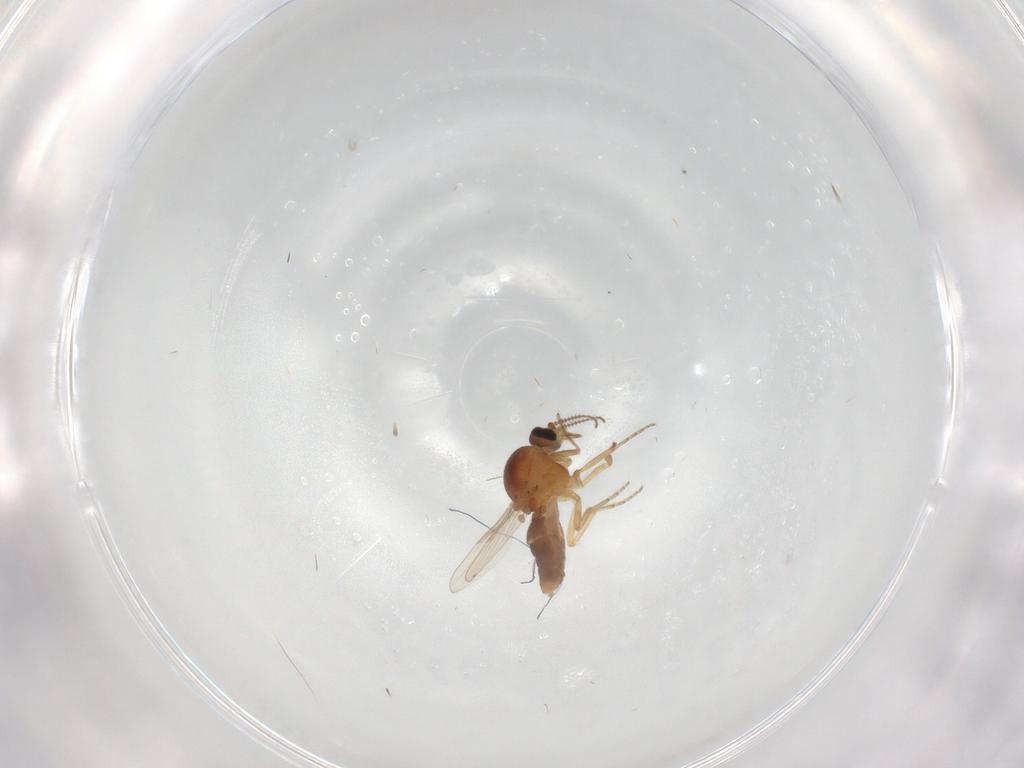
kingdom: Animalia
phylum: Arthropoda
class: Insecta
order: Diptera
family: Ceratopogonidae
